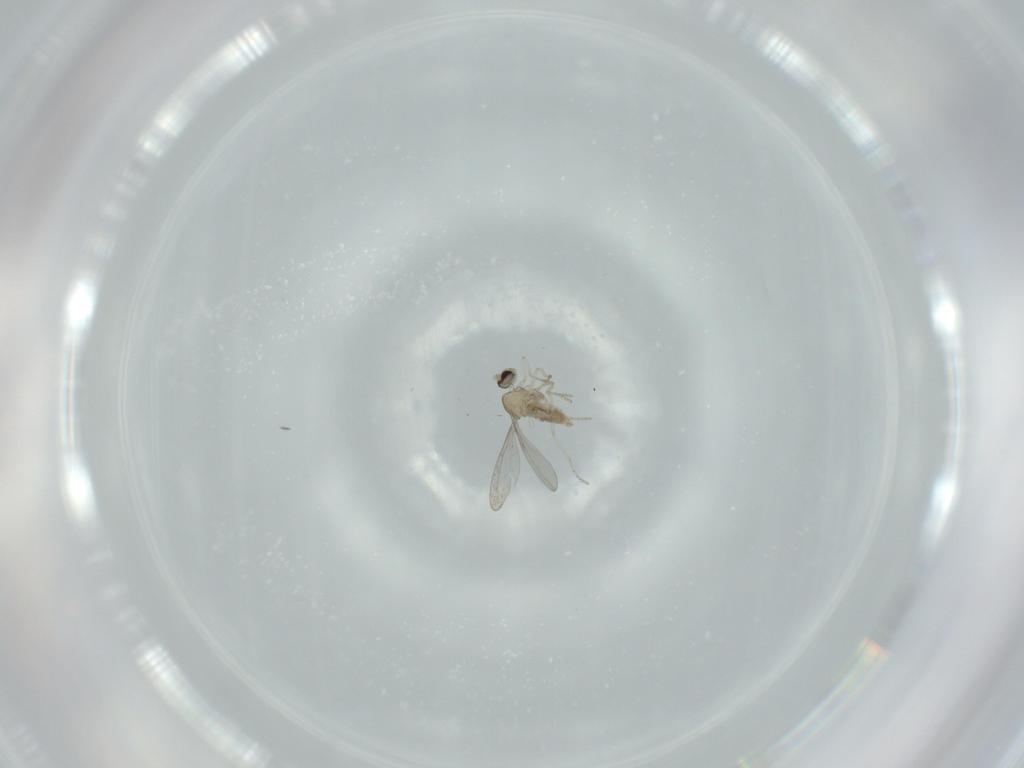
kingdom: Animalia
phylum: Arthropoda
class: Insecta
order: Diptera
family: Cecidomyiidae
